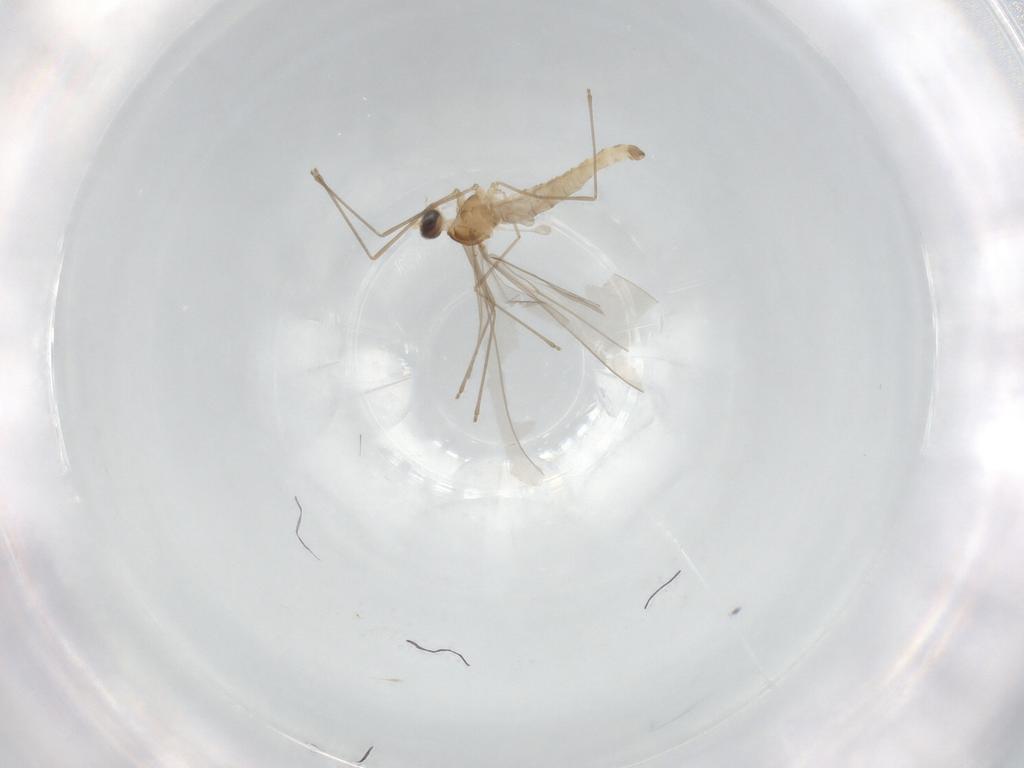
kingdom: Animalia
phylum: Arthropoda
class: Insecta
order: Diptera
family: Cecidomyiidae
